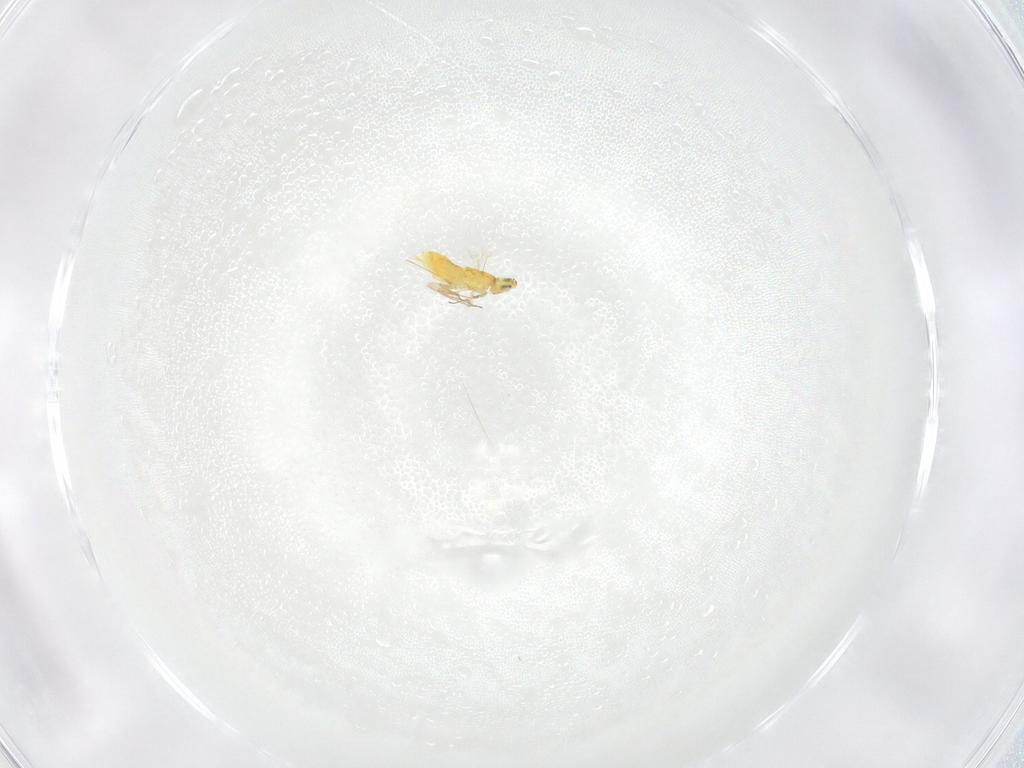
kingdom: Animalia
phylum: Arthropoda
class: Insecta
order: Hymenoptera
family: Aphelinidae
